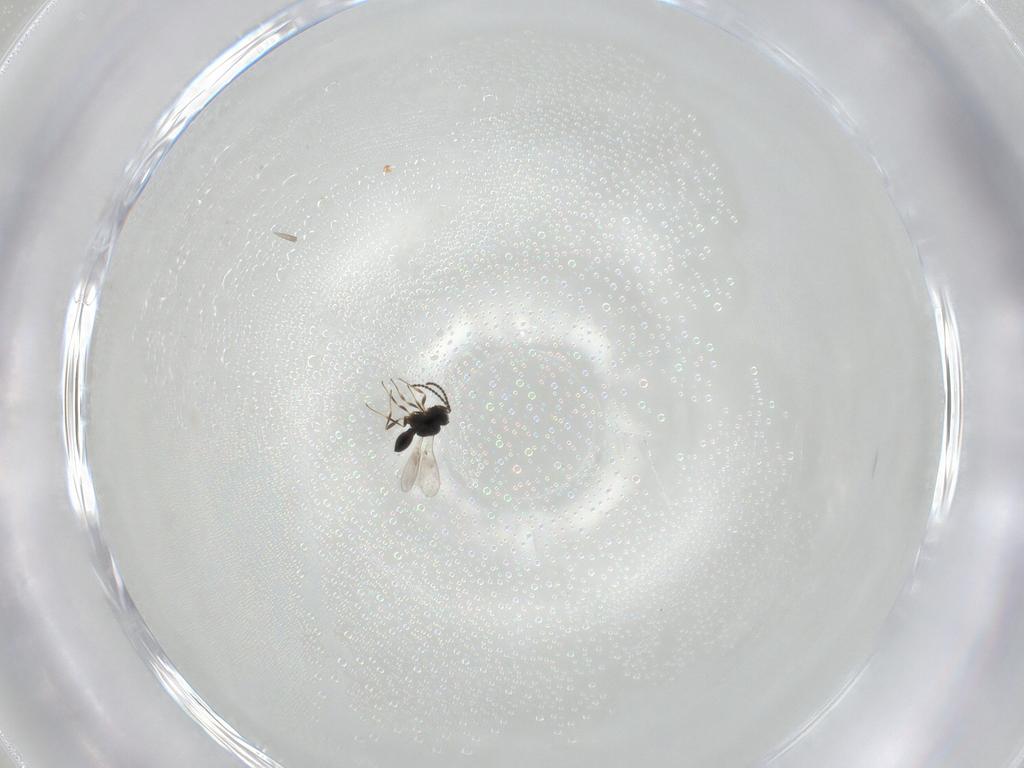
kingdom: Animalia
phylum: Arthropoda
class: Insecta
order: Hymenoptera
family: Scelionidae
